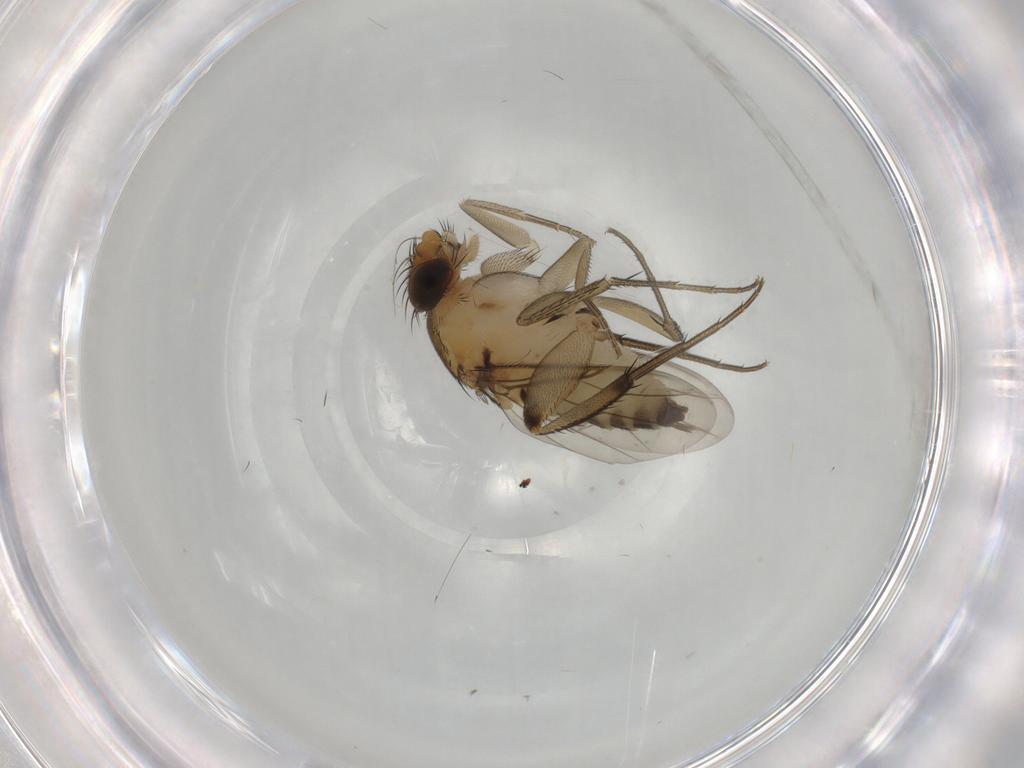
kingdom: Animalia
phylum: Arthropoda
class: Insecta
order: Diptera
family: Phoridae
